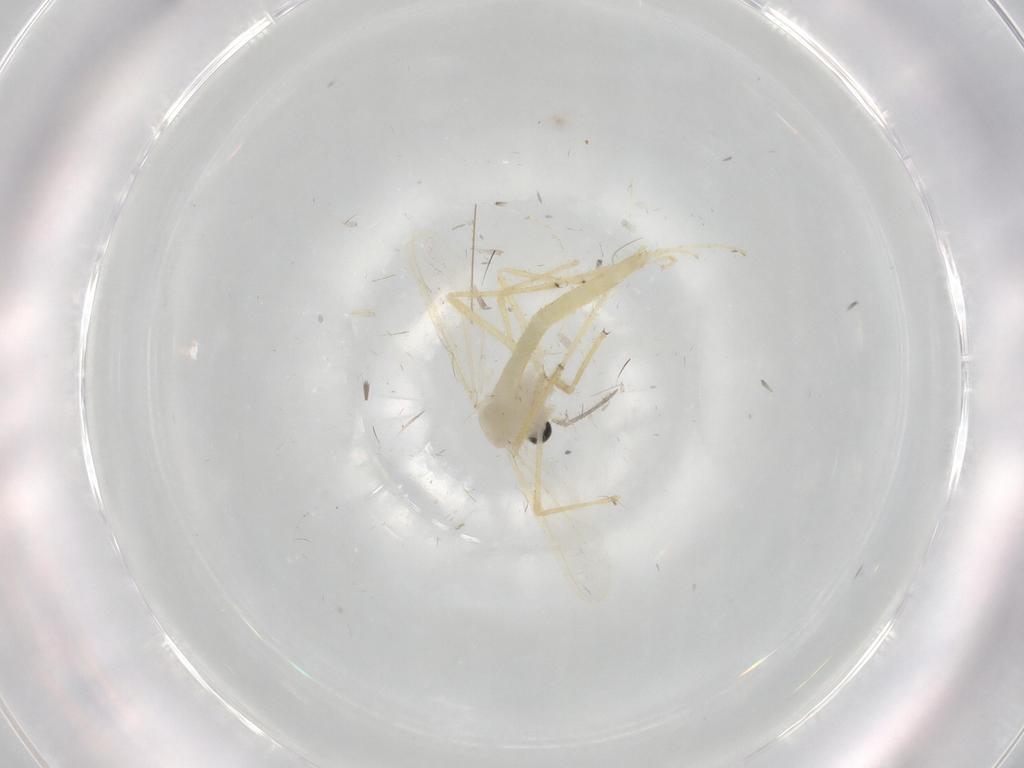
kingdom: Animalia
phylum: Arthropoda
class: Insecta
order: Diptera
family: Chironomidae
